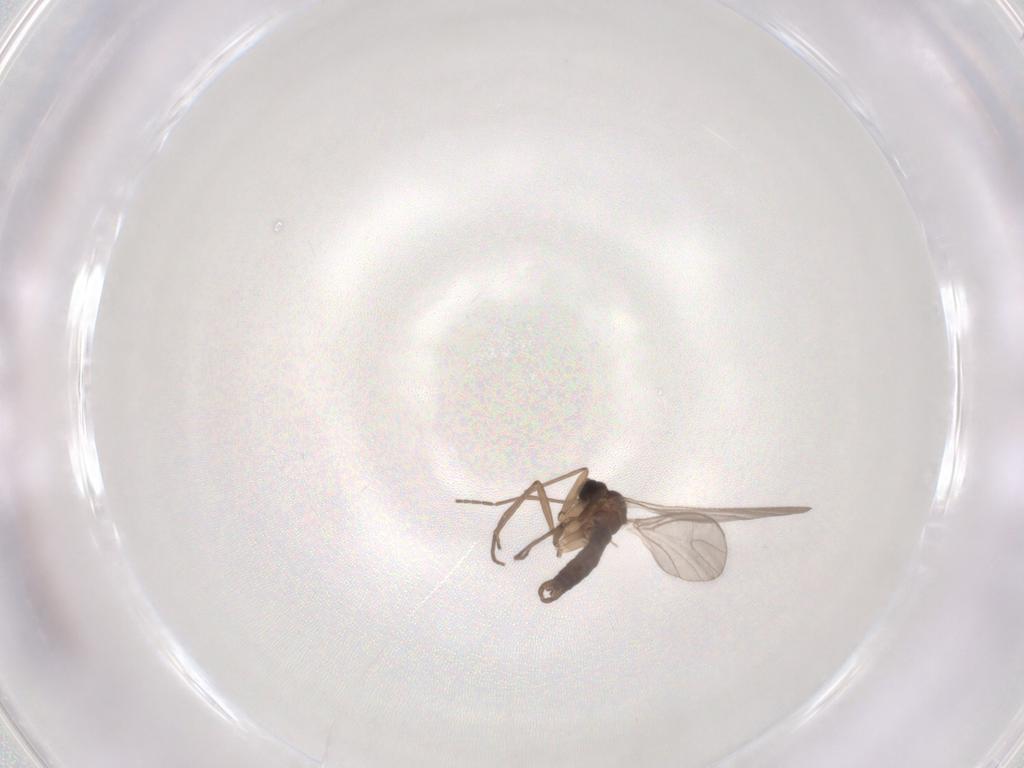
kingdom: Animalia
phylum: Arthropoda
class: Insecta
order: Diptera
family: Sciaridae
